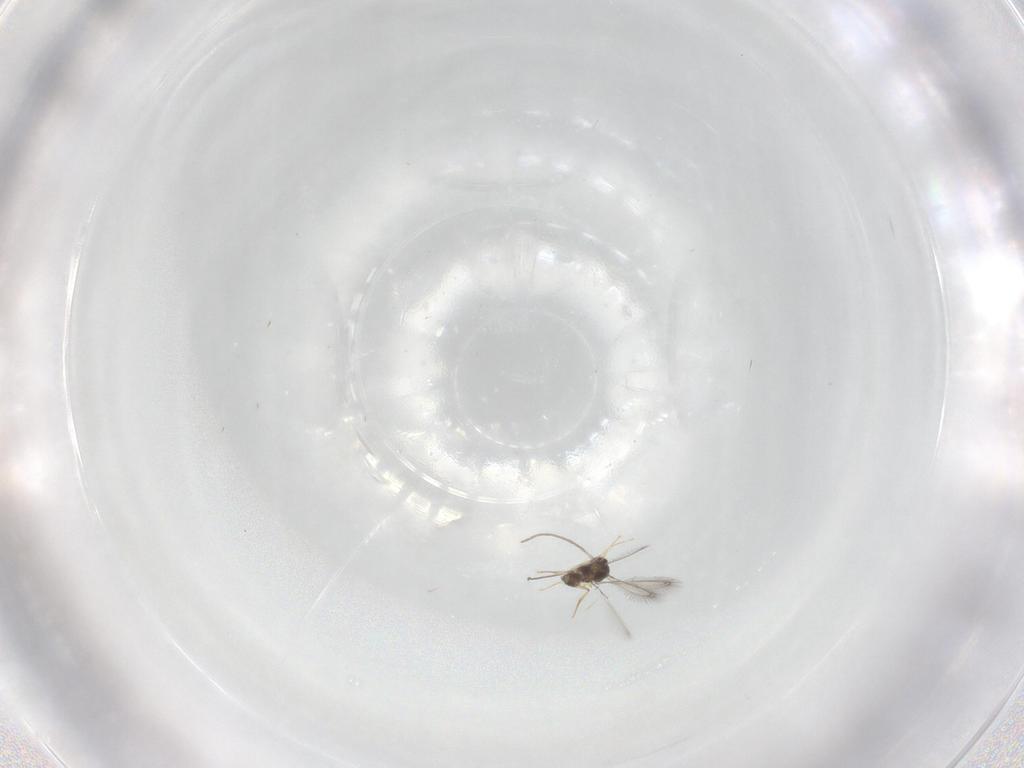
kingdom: Animalia
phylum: Arthropoda
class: Insecta
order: Hymenoptera
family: Mymaridae
